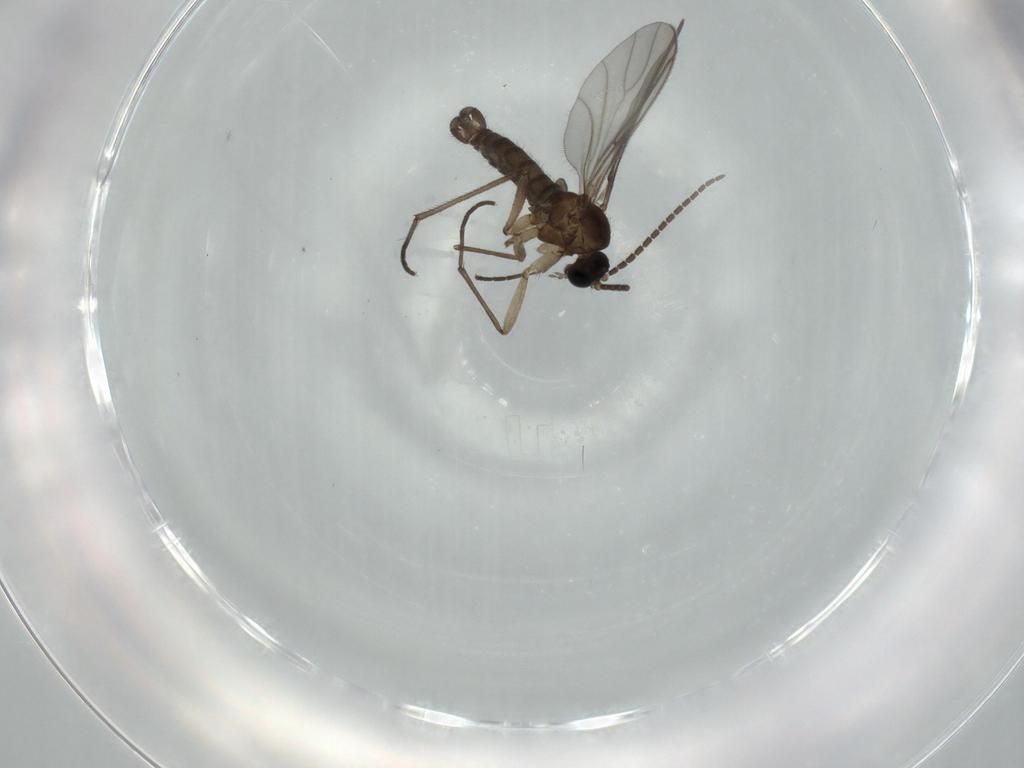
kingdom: Animalia
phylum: Arthropoda
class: Insecta
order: Diptera
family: Sciaridae
